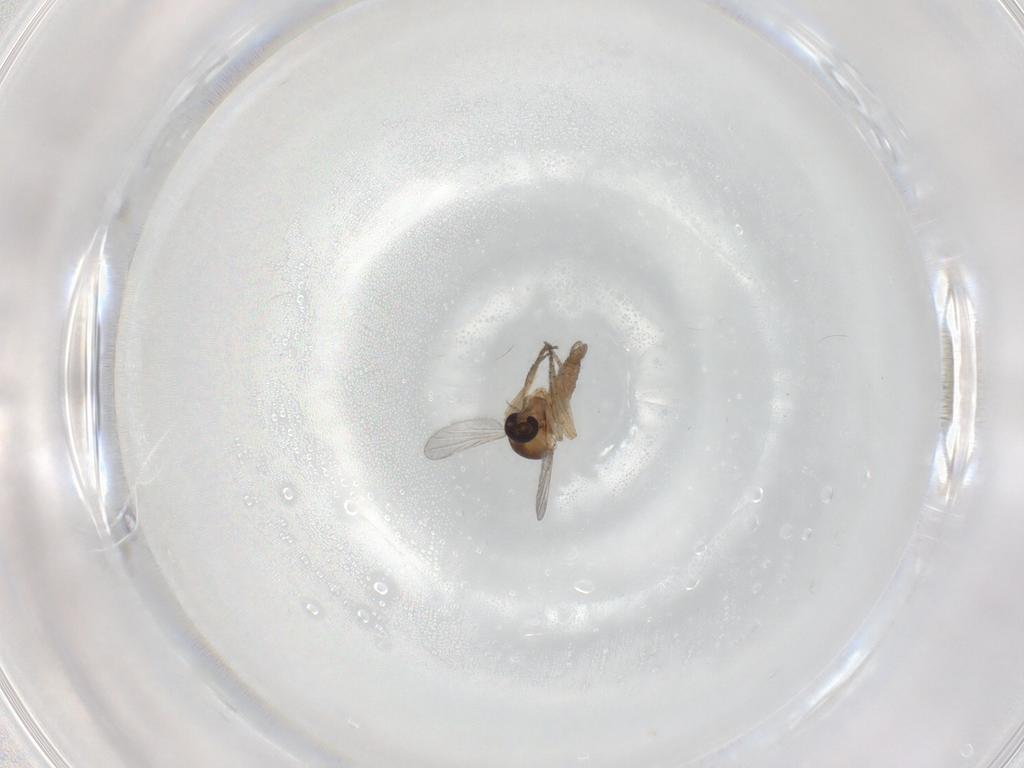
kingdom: Animalia
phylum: Arthropoda
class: Insecta
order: Diptera
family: Ceratopogonidae
